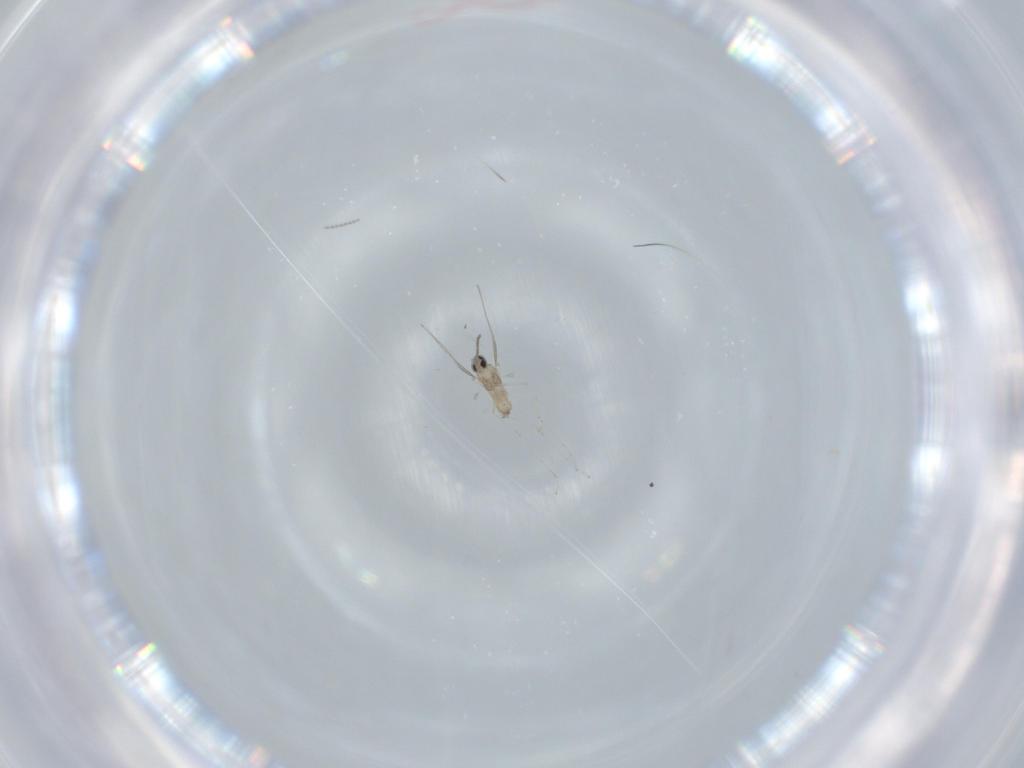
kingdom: Animalia
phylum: Arthropoda
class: Insecta
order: Diptera
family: Cecidomyiidae
